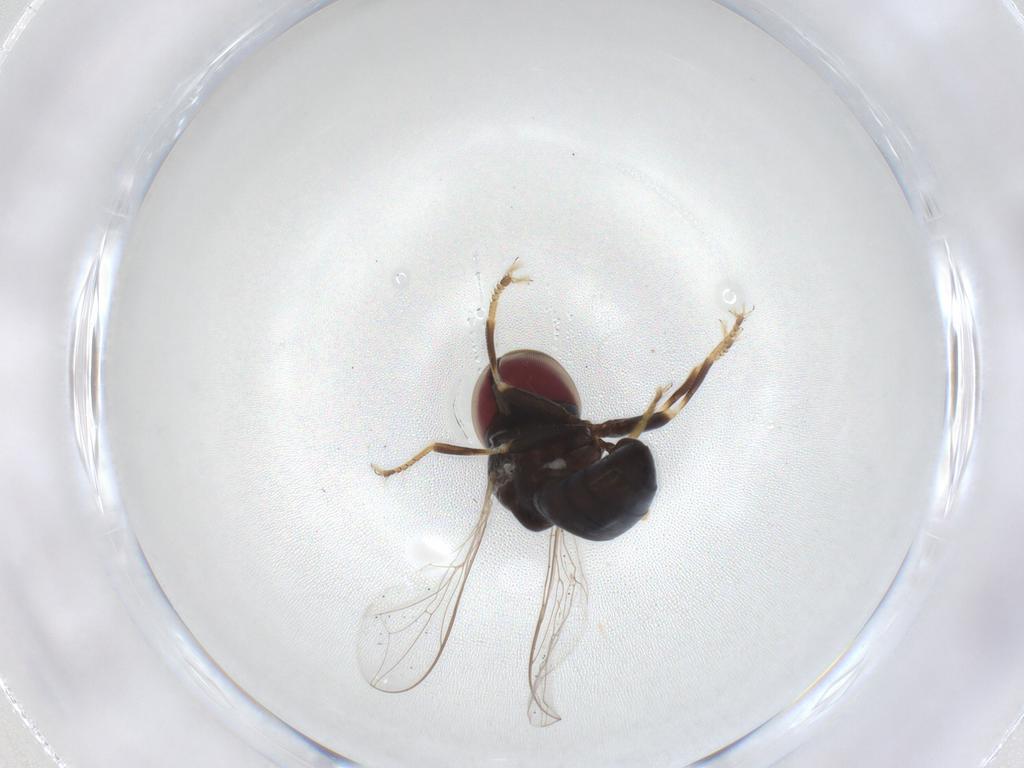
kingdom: Animalia
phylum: Arthropoda
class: Insecta
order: Diptera
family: Pipunculidae
